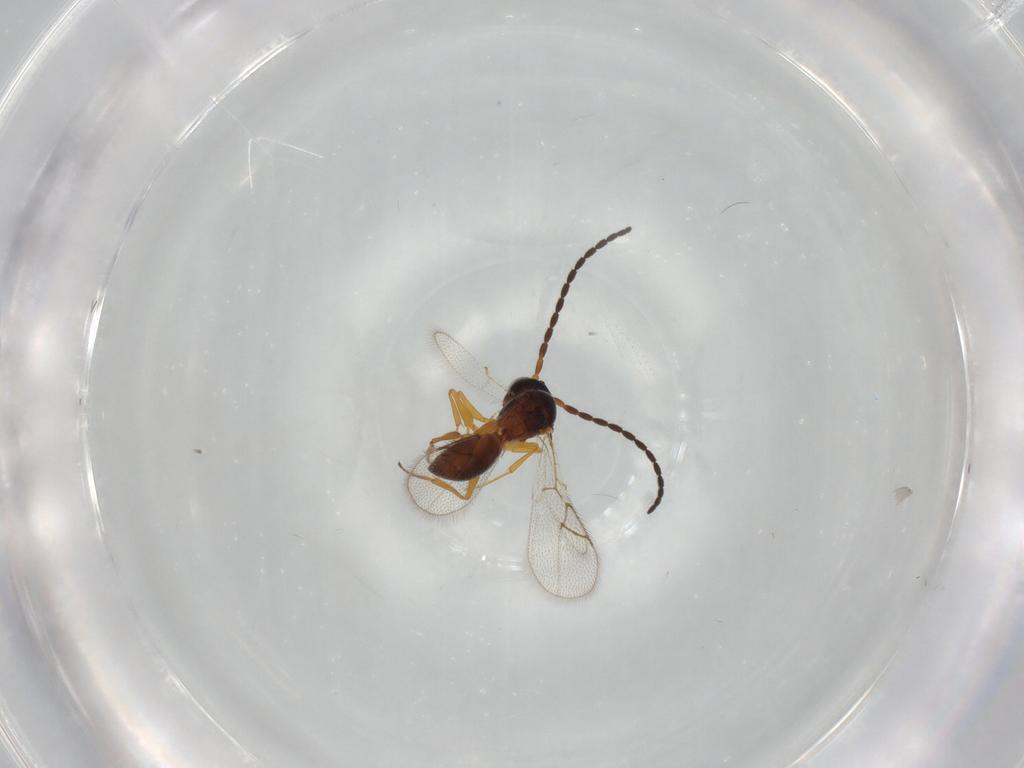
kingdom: Animalia
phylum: Arthropoda
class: Insecta
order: Hymenoptera
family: Figitidae
